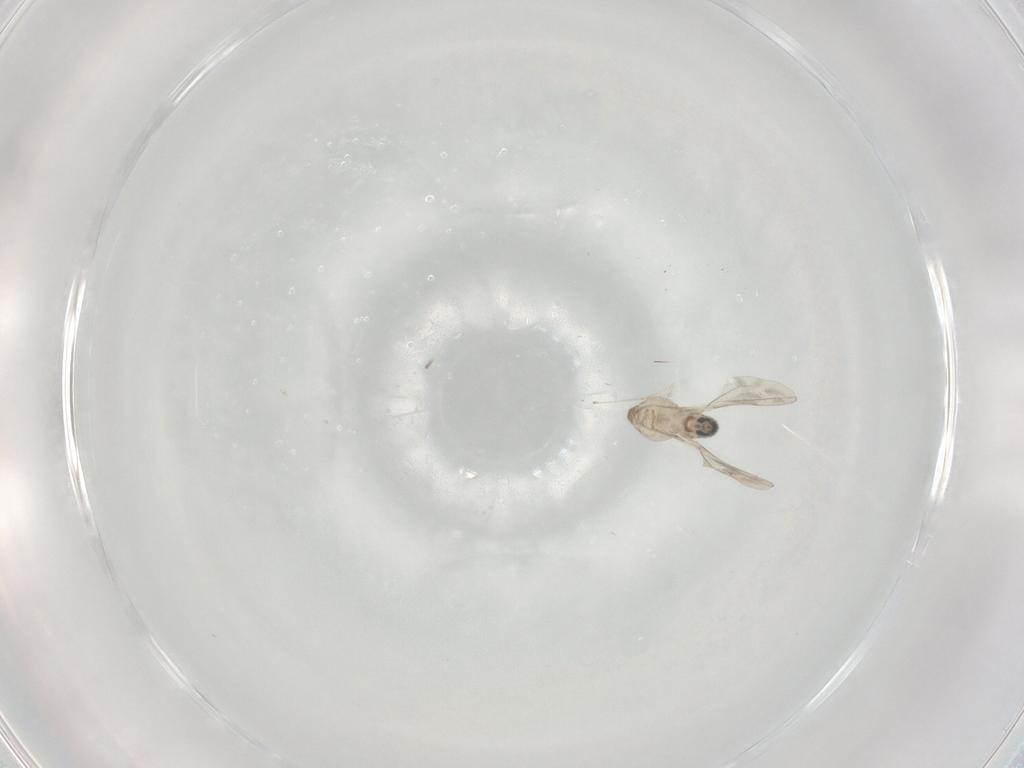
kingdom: Animalia
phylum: Arthropoda
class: Insecta
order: Diptera
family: Cecidomyiidae
